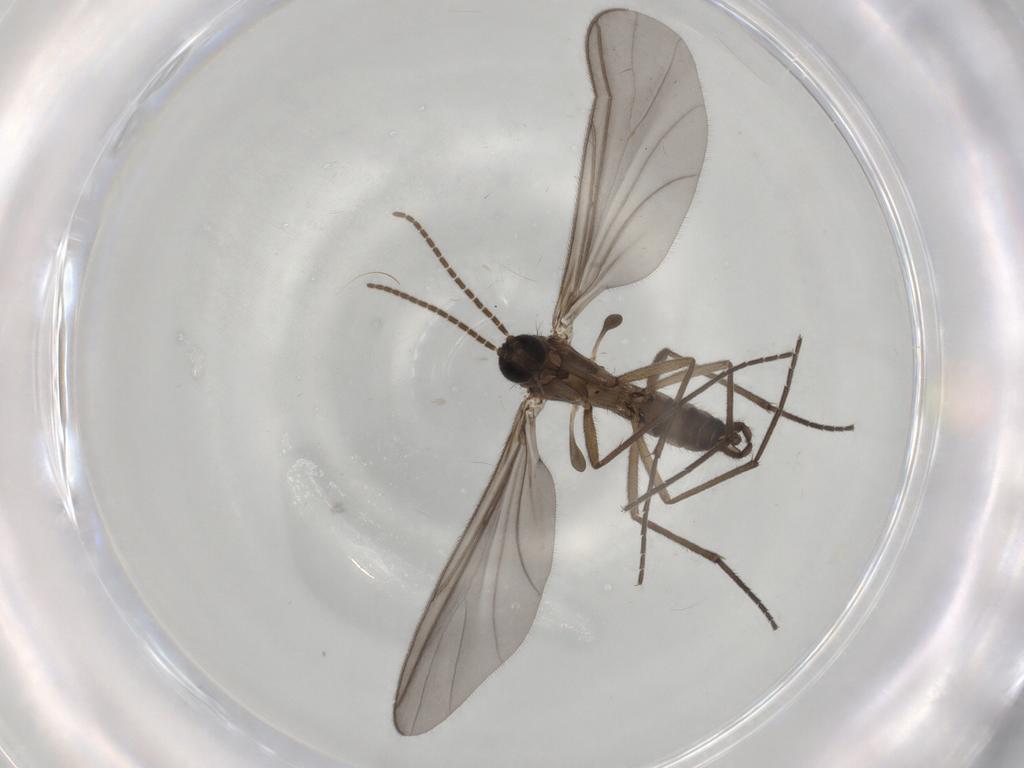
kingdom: Animalia
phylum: Arthropoda
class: Insecta
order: Diptera
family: Sciaridae
